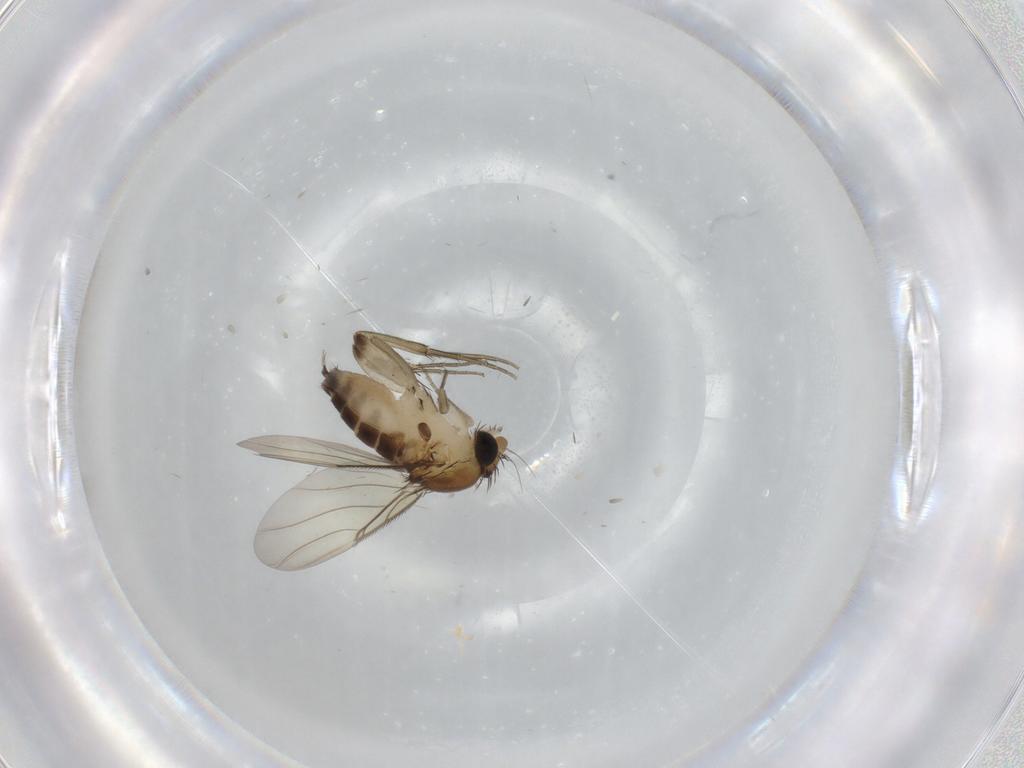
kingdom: Animalia
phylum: Arthropoda
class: Insecta
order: Diptera
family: Phoridae
